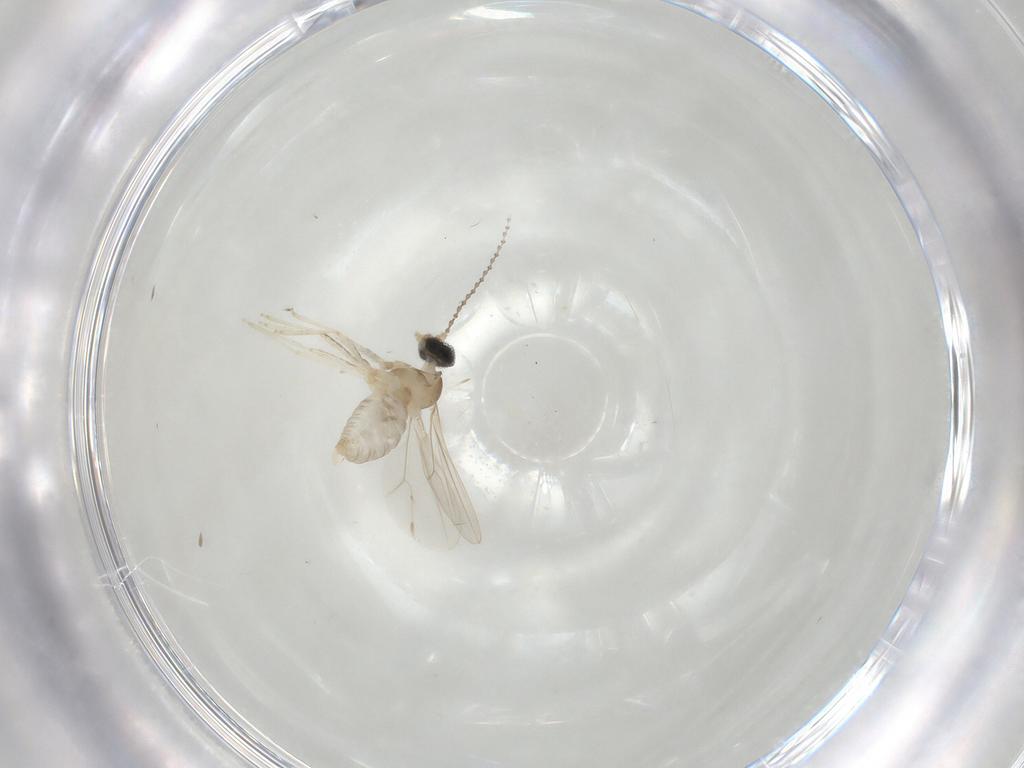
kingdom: Animalia
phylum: Arthropoda
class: Insecta
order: Diptera
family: Cecidomyiidae
